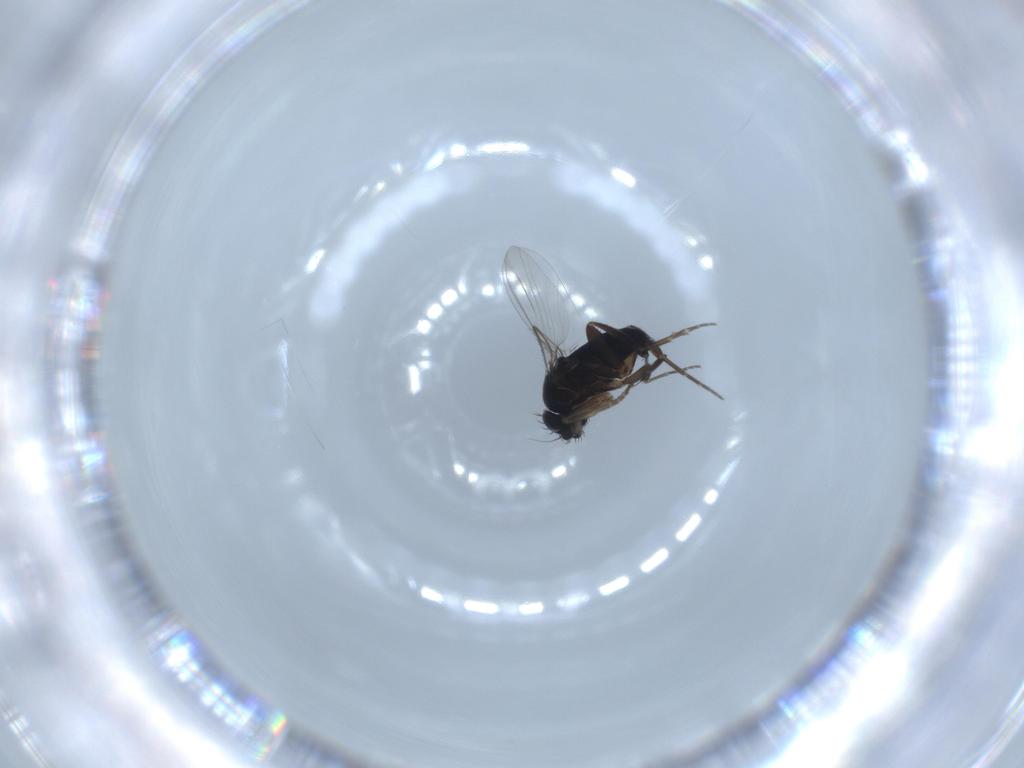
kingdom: Animalia
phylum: Arthropoda
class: Insecta
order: Diptera
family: Phoridae
